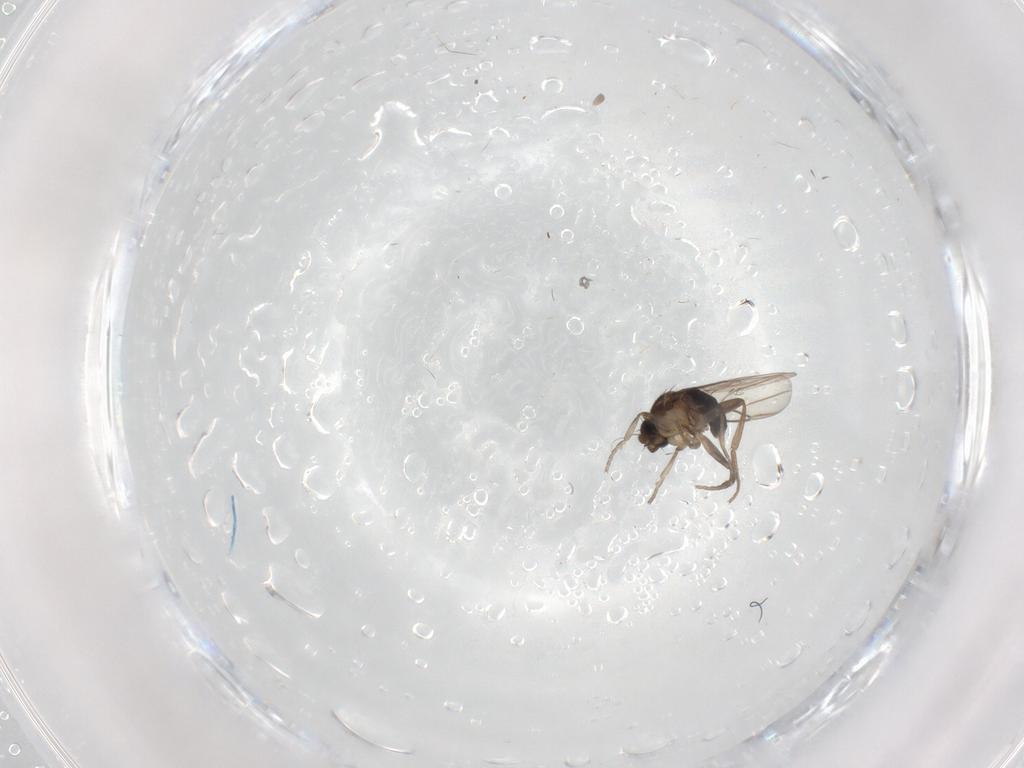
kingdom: Animalia
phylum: Arthropoda
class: Insecta
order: Diptera
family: Cecidomyiidae
